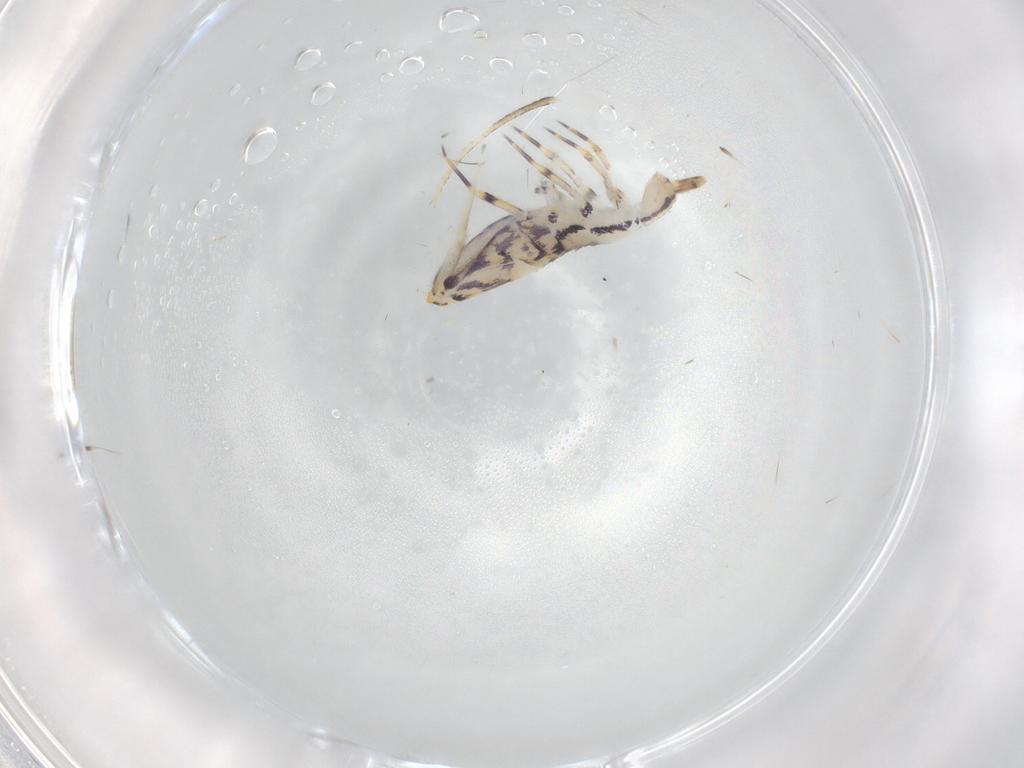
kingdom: Animalia
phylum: Arthropoda
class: Collembola
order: Entomobryomorpha
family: Entomobryidae
